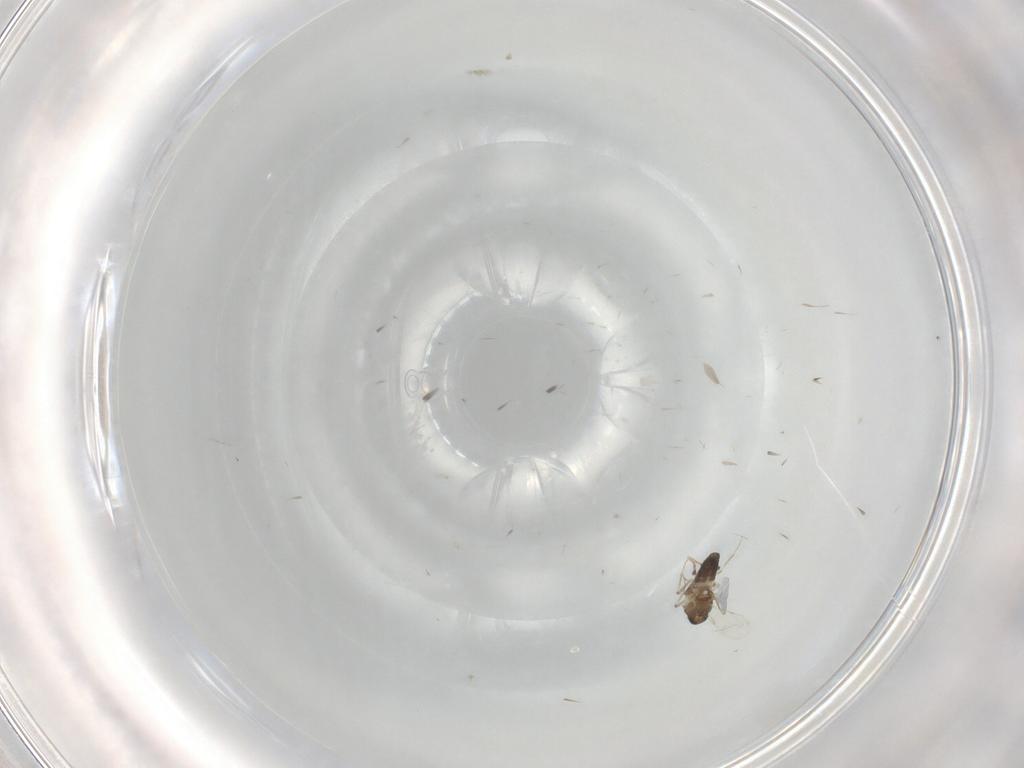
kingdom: Animalia
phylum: Arthropoda
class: Insecta
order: Diptera
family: Ceratopogonidae
